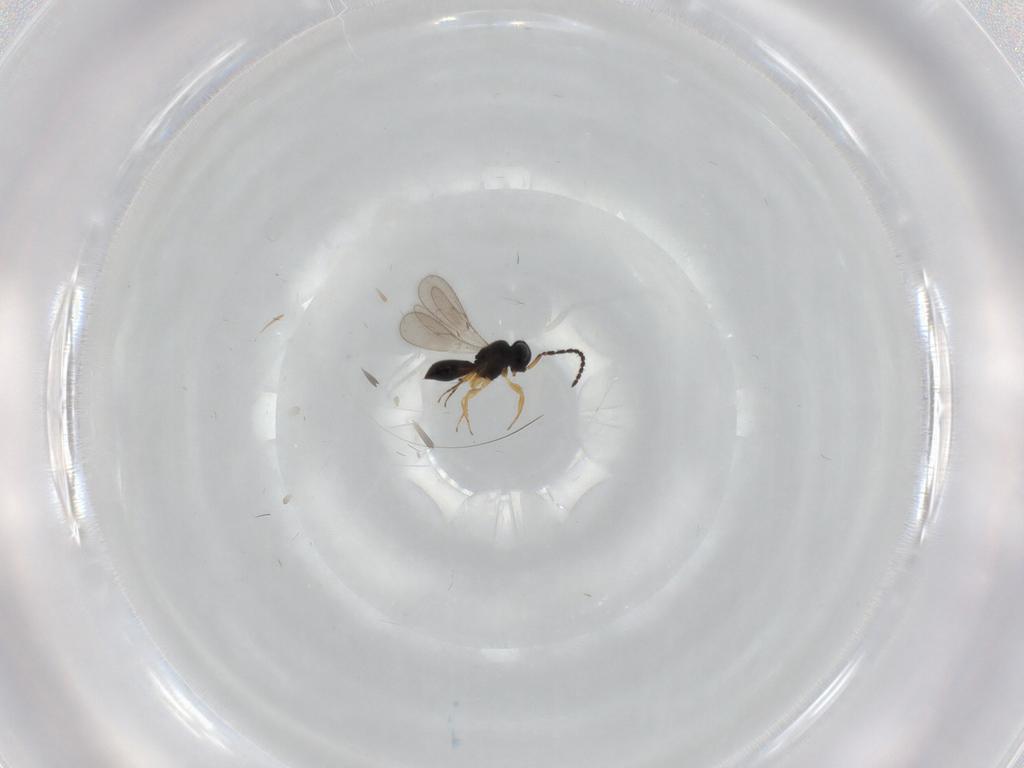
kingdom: Animalia
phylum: Arthropoda
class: Insecta
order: Hymenoptera
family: Scelionidae
